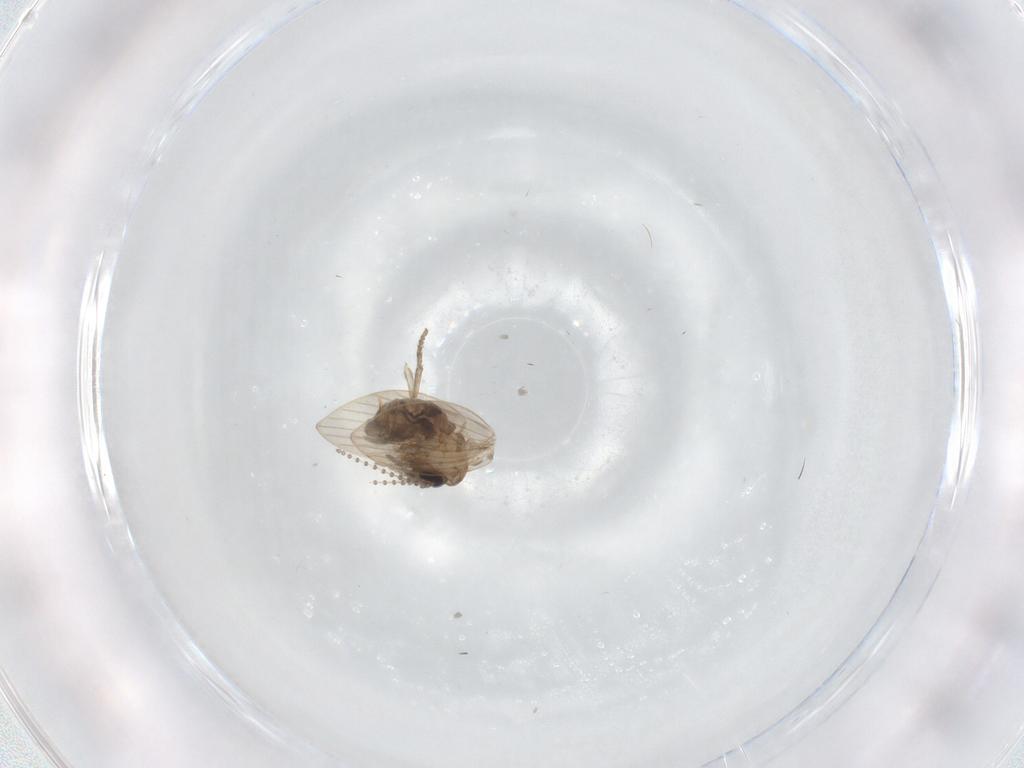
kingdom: Animalia
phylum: Arthropoda
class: Insecta
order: Diptera
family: Psychodidae
